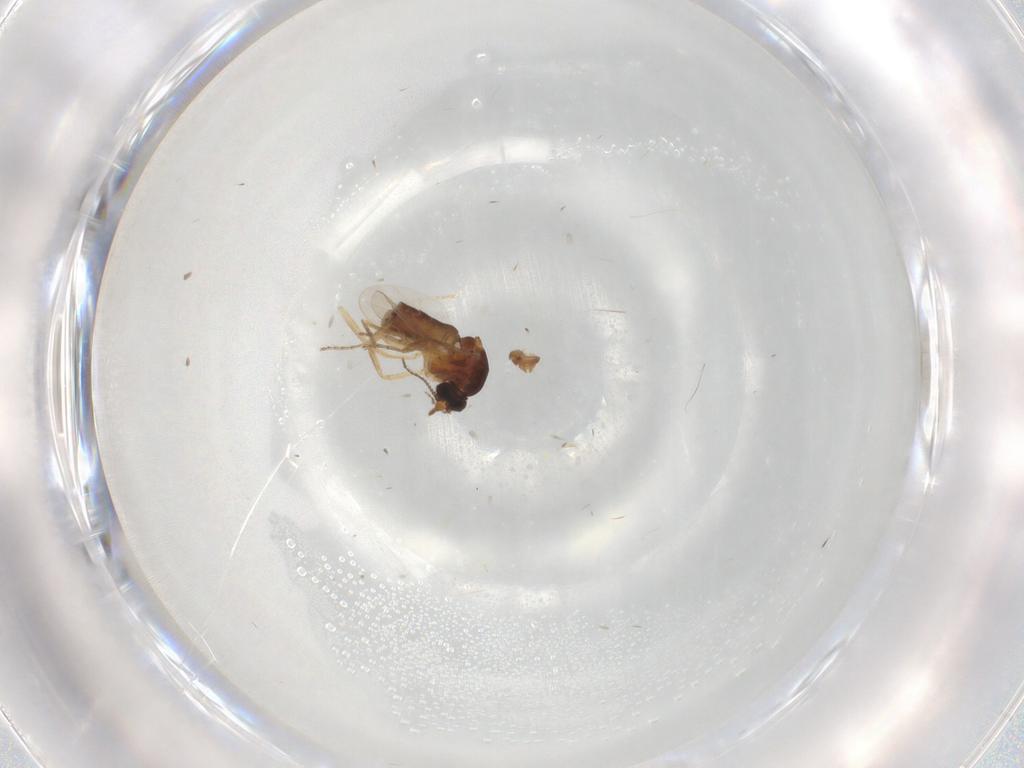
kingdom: Animalia
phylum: Arthropoda
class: Insecta
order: Diptera
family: Ceratopogonidae
